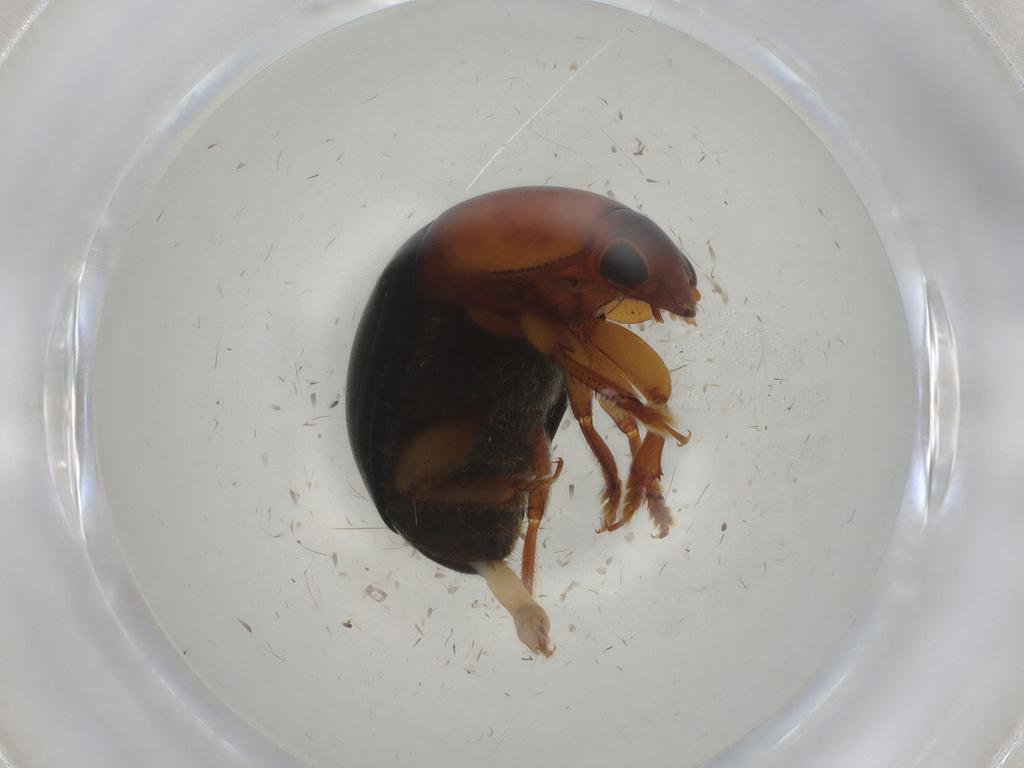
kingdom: Animalia
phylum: Arthropoda
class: Insecta
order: Coleoptera
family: Nitidulidae
